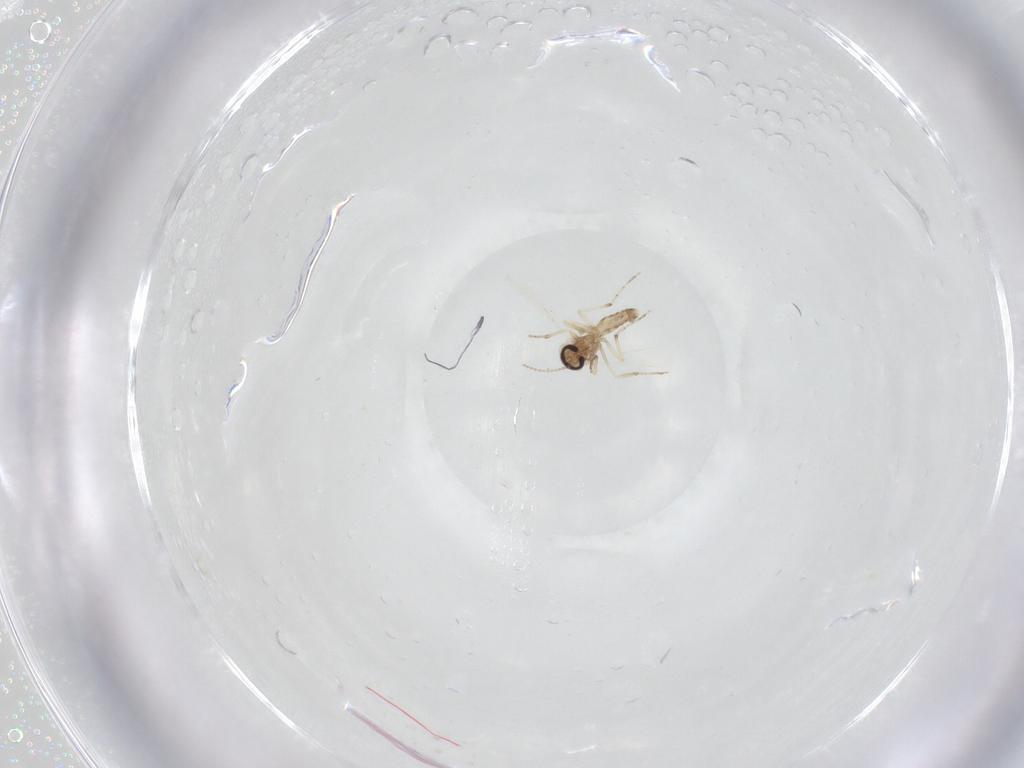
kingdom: Animalia
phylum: Arthropoda
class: Insecta
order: Diptera
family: Ceratopogonidae
